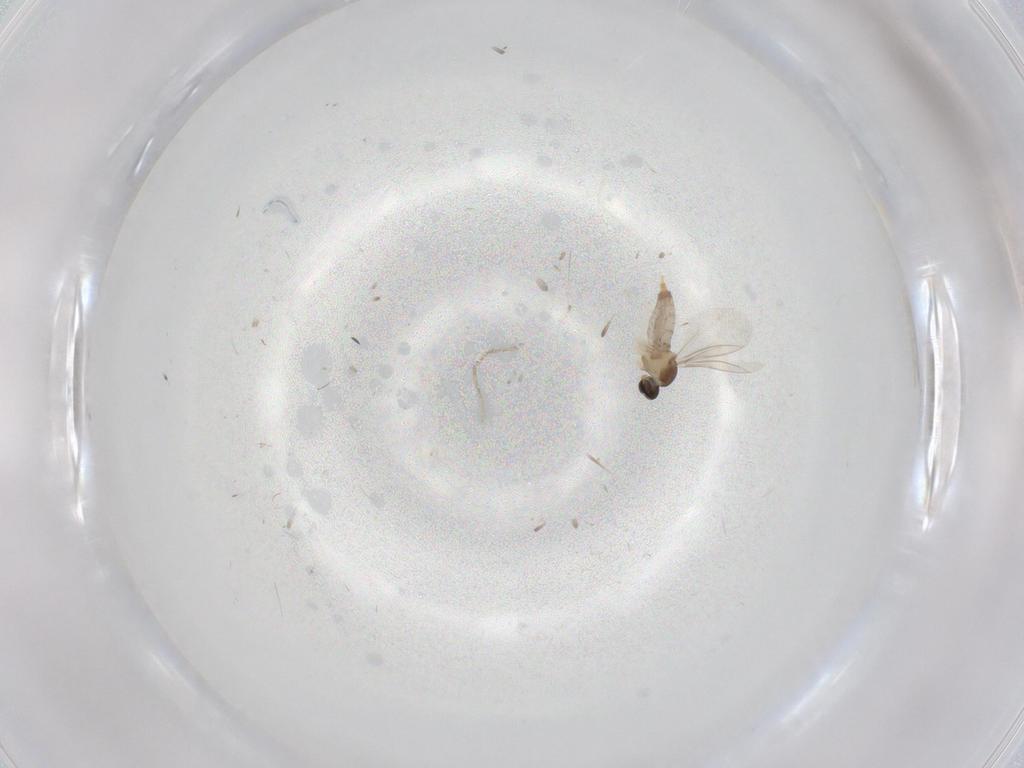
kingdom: Animalia
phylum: Arthropoda
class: Insecta
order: Diptera
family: Cecidomyiidae
